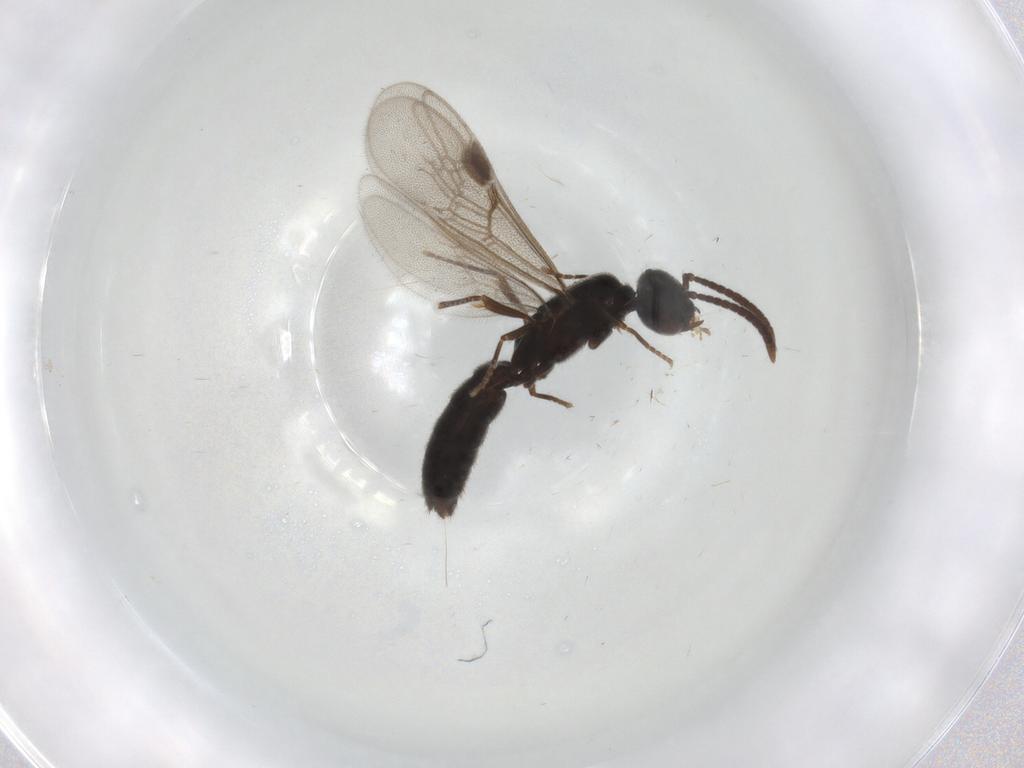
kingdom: Animalia
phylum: Arthropoda
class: Insecta
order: Hymenoptera
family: Formicidae
